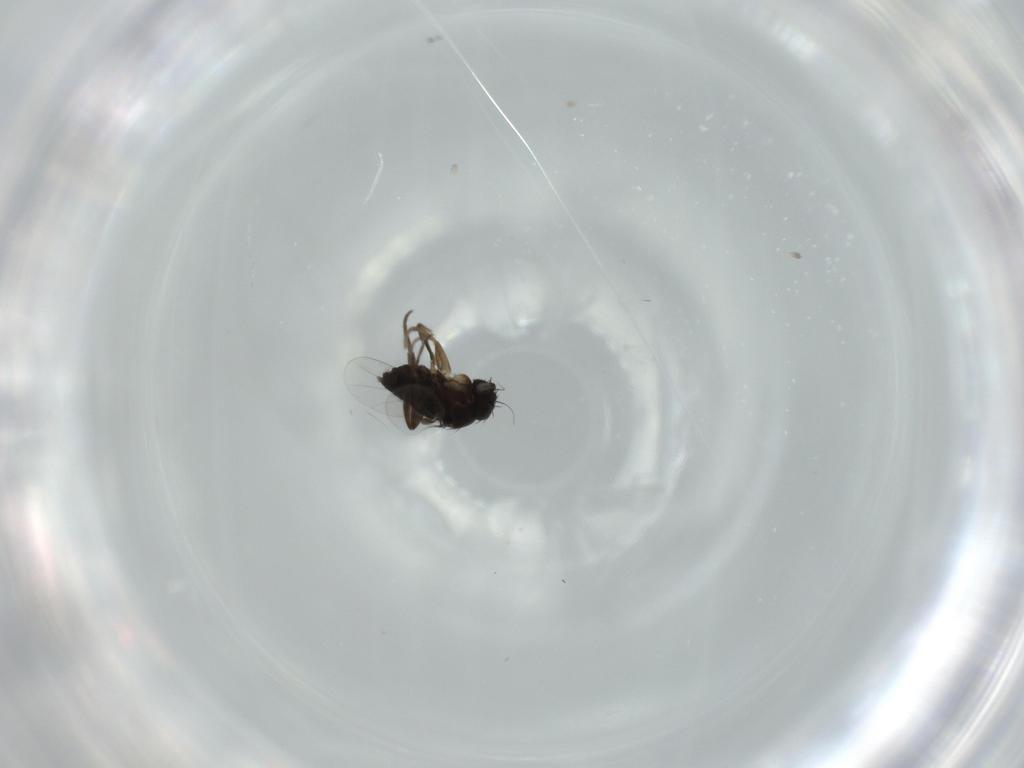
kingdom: Animalia
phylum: Arthropoda
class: Insecta
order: Diptera
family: Phoridae
